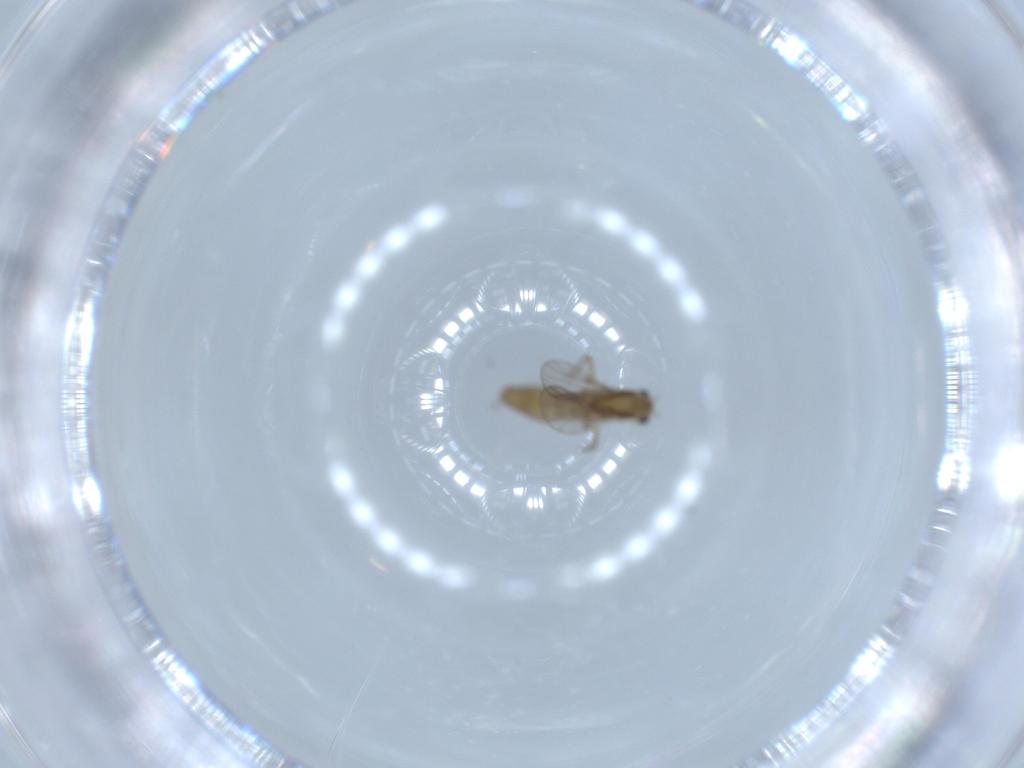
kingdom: Animalia
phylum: Arthropoda
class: Insecta
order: Diptera
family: Chironomidae
